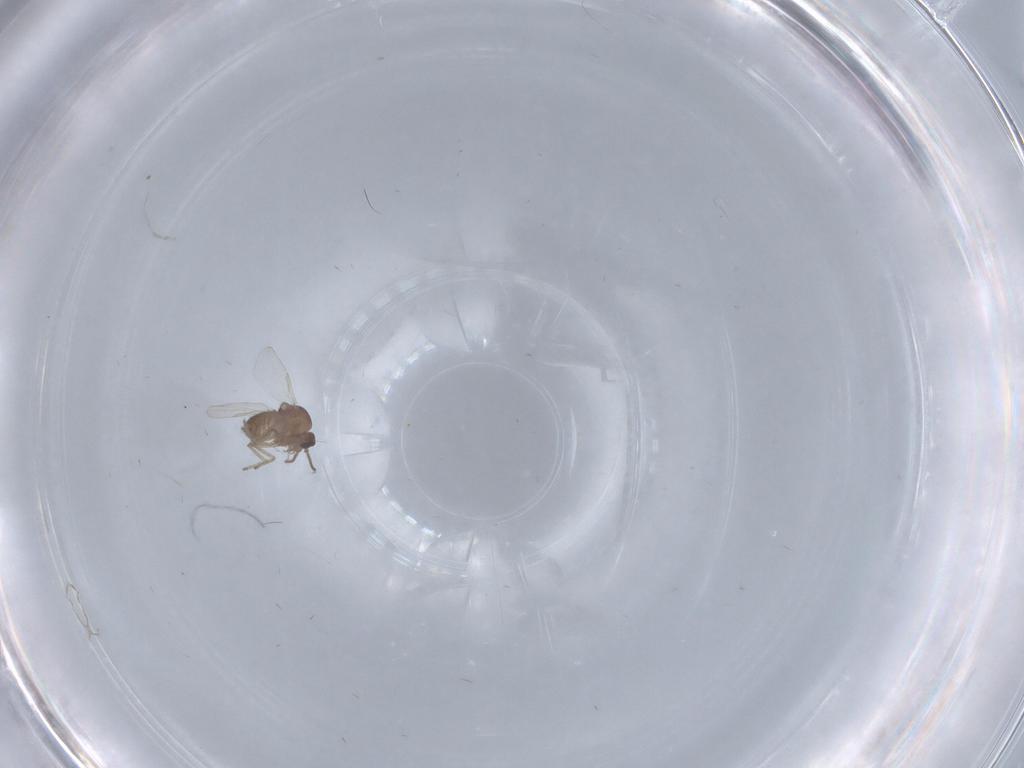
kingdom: Animalia
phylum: Arthropoda
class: Insecta
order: Diptera
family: Ceratopogonidae
